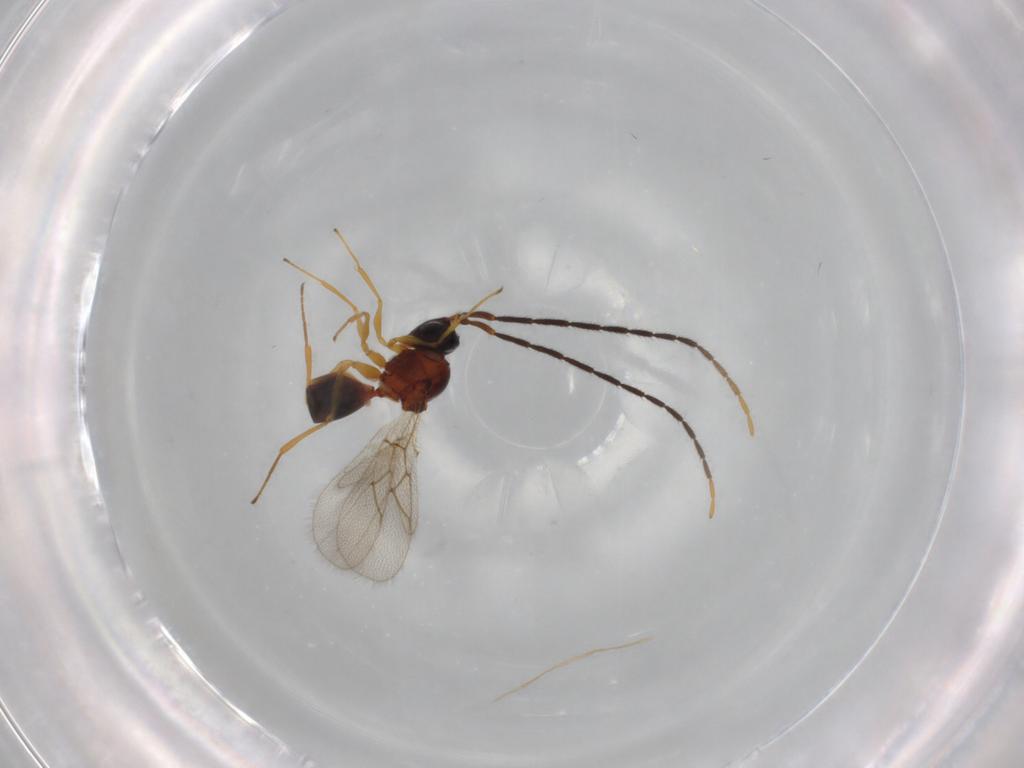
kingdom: Animalia
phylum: Arthropoda
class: Insecta
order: Hymenoptera
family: Figitidae
